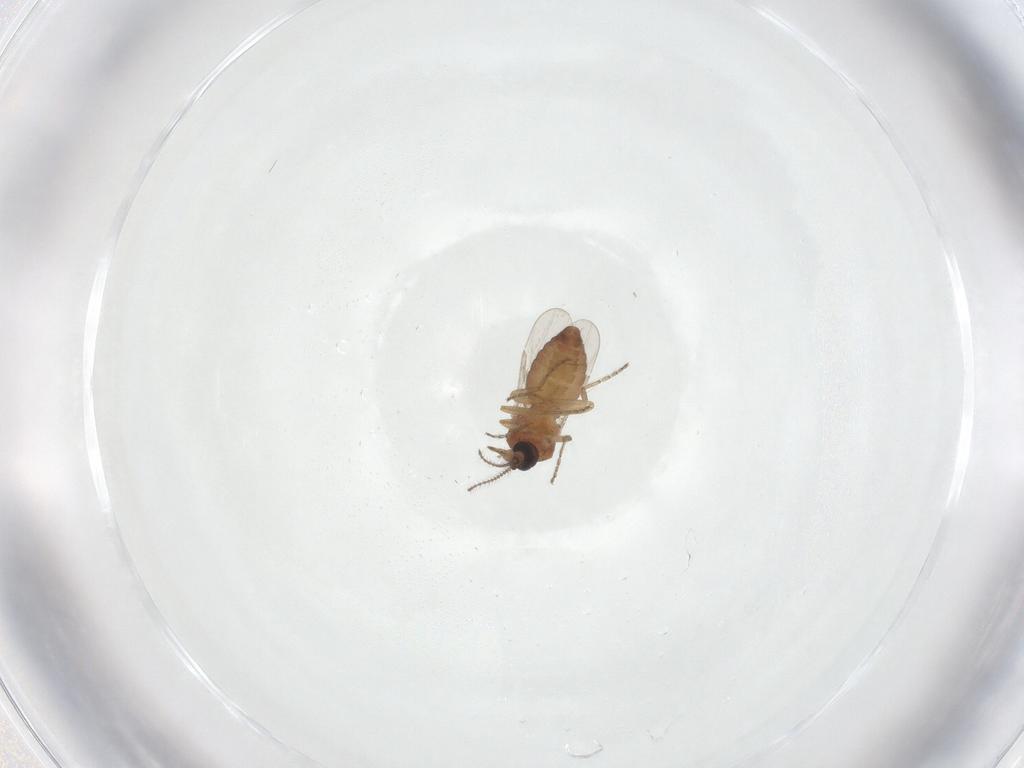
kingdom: Animalia
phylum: Arthropoda
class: Insecta
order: Diptera
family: Ceratopogonidae
